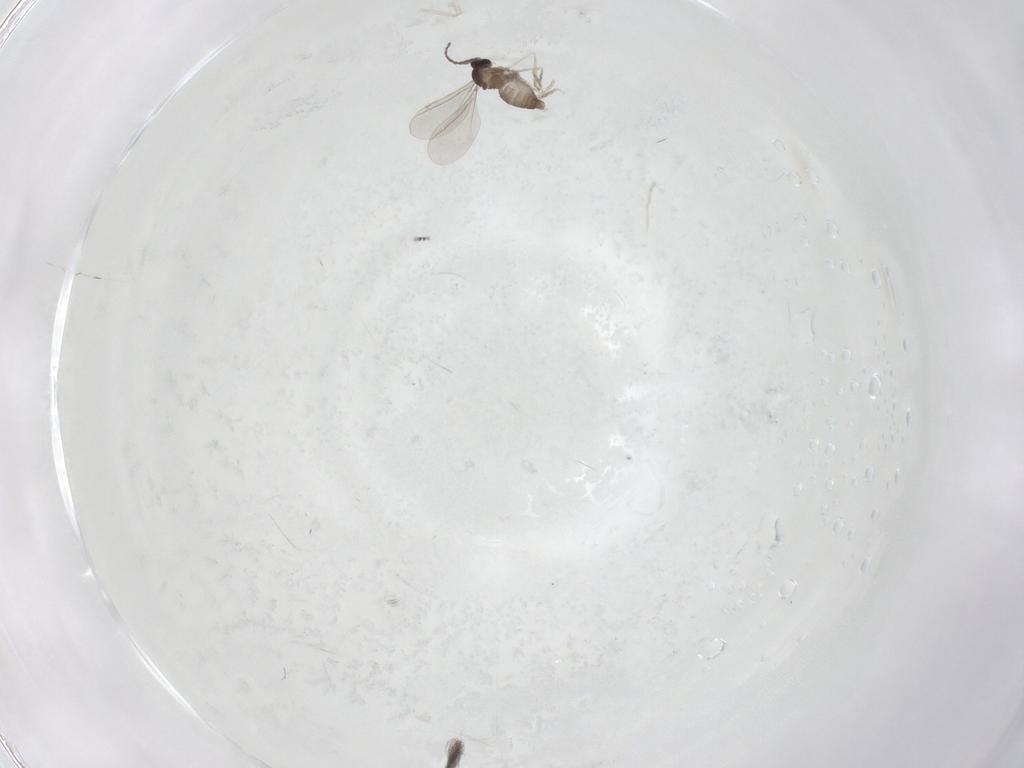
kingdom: Animalia
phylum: Arthropoda
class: Insecta
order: Diptera
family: Cecidomyiidae
